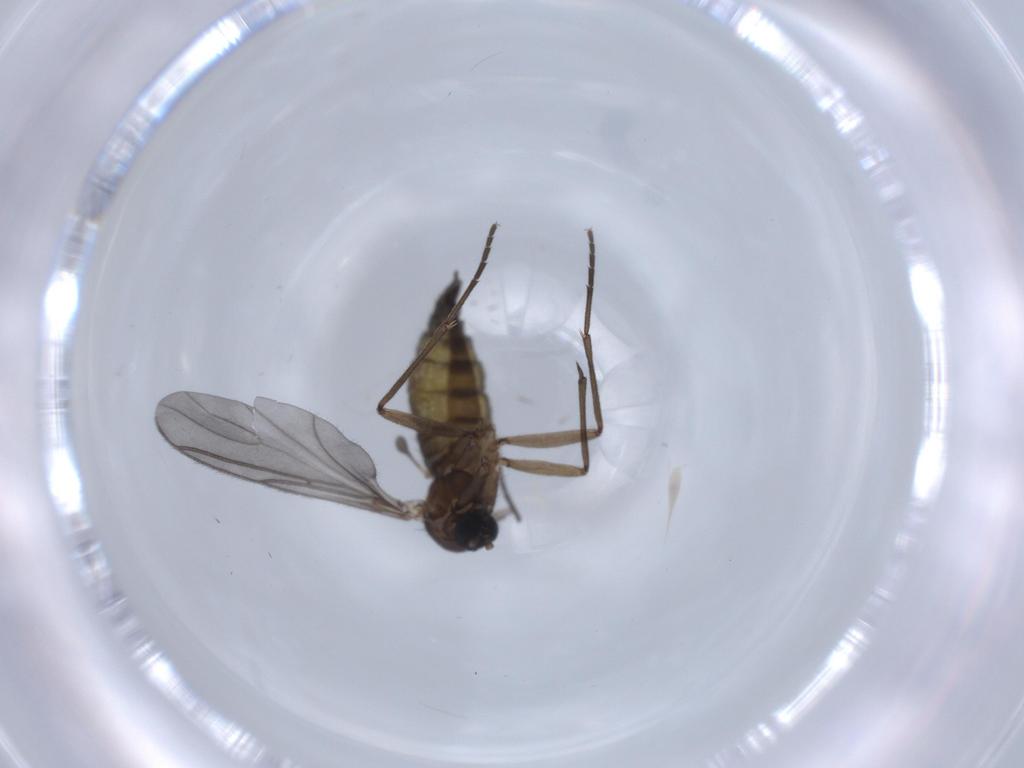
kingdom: Animalia
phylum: Arthropoda
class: Insecta
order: Diptera
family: Sciaridae
